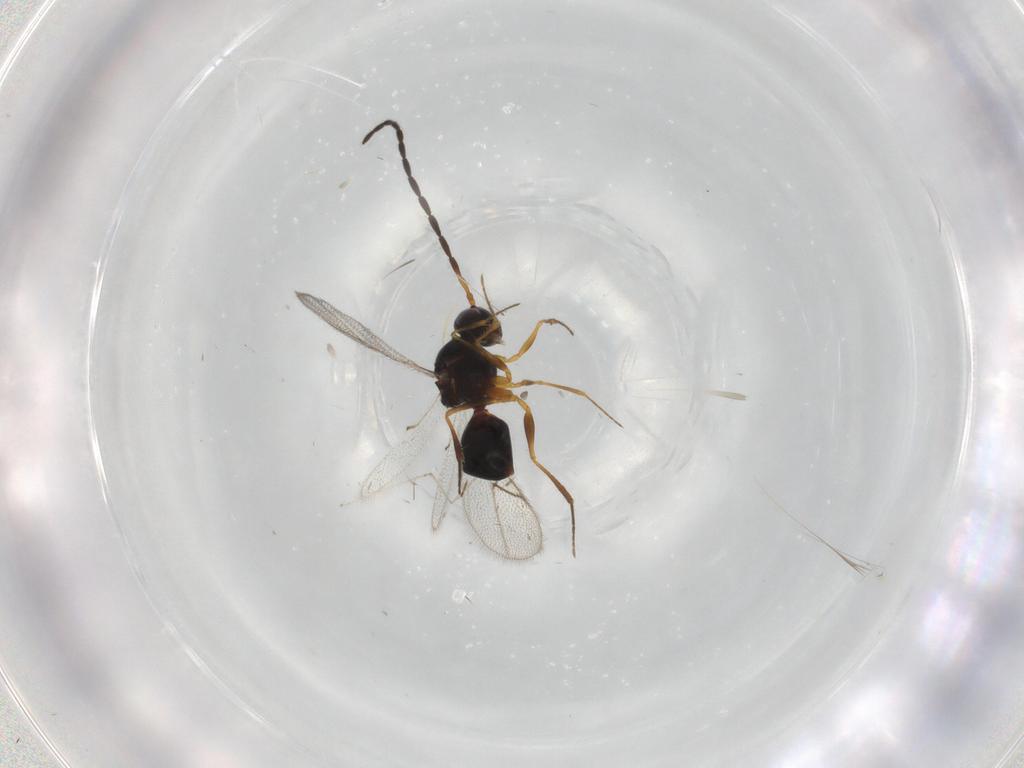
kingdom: Animalia
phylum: Arthropoda
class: Insecta
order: Hymenoptera
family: Figitidae
